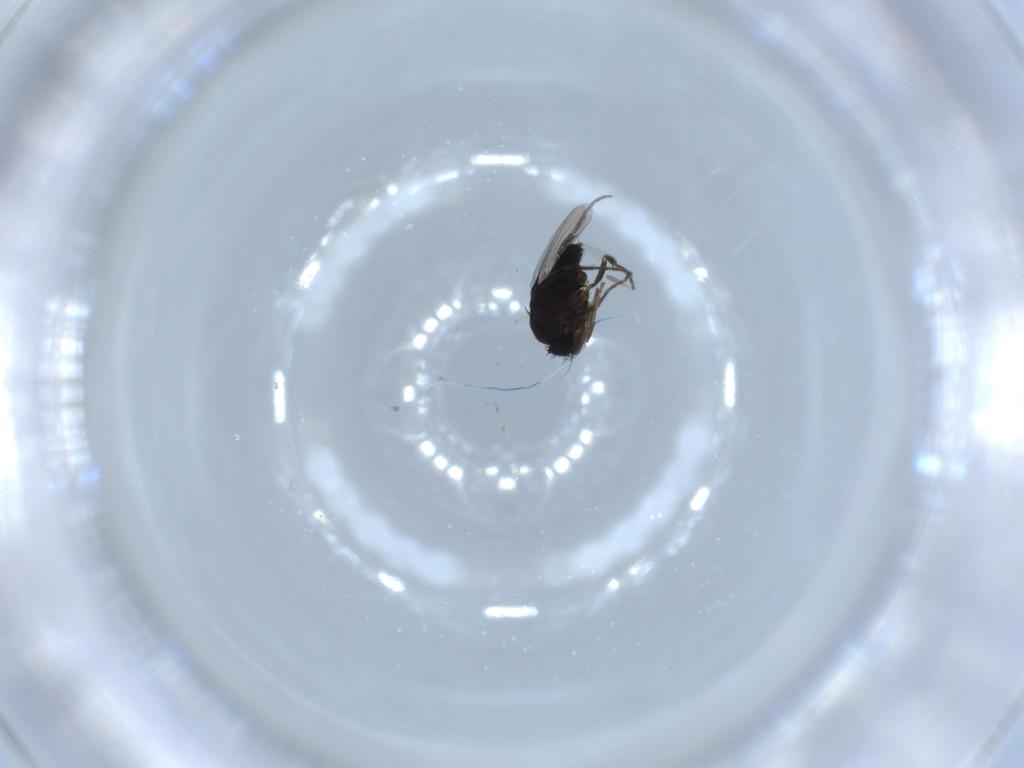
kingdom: Animalia
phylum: Arthropoda
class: Insecta
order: Diptera
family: Phoridae
